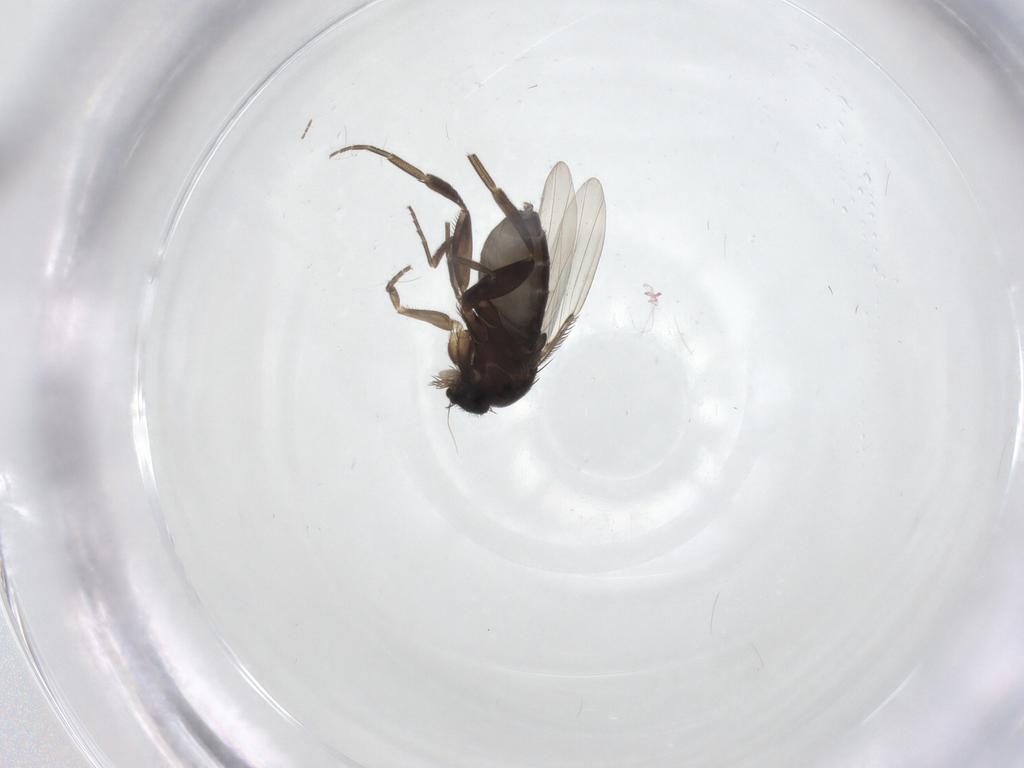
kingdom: Animalia
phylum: Arthropoda
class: Insecta
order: Diptera
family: Phoridae
